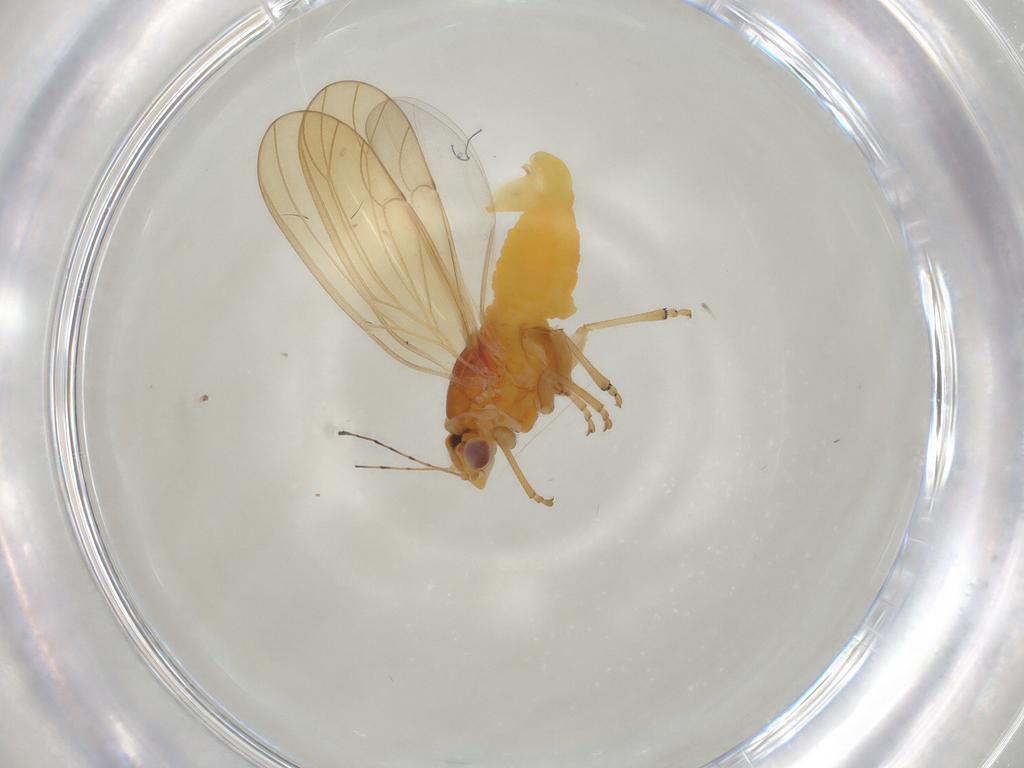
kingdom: Animalia
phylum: Arthropoda
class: Insecta
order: Hemiptera
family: Psylloidea_incertae_sedis
